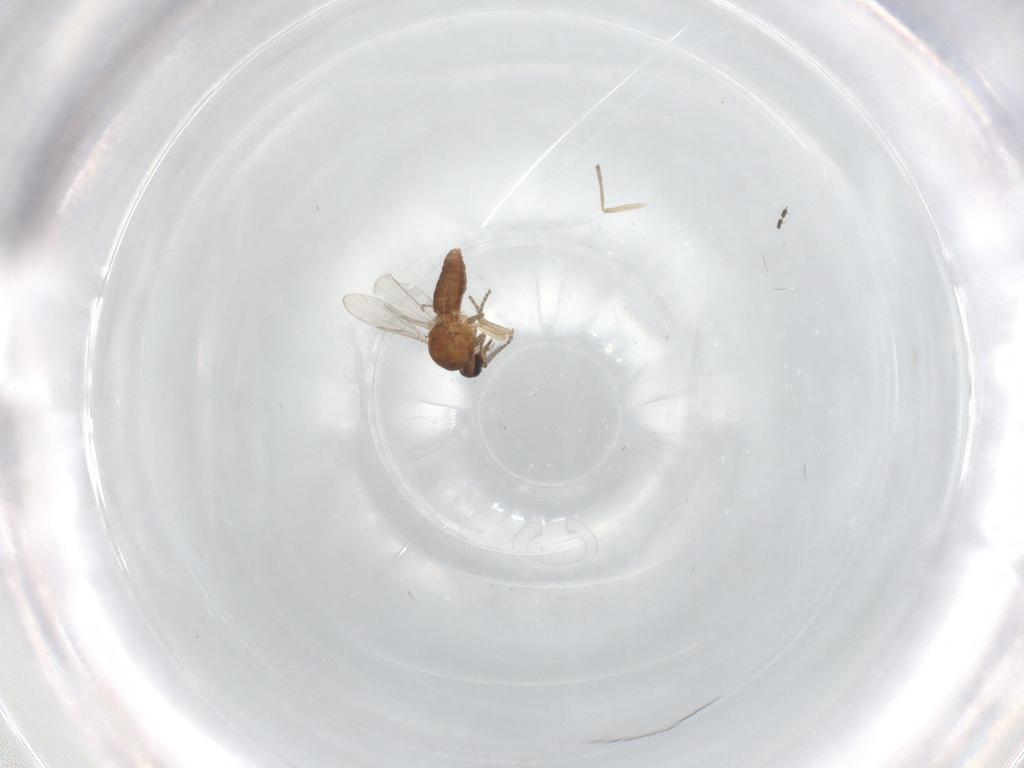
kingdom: Animalia
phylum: Arthropoda
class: Insecta
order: Diptera
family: Ceratopogonidae
